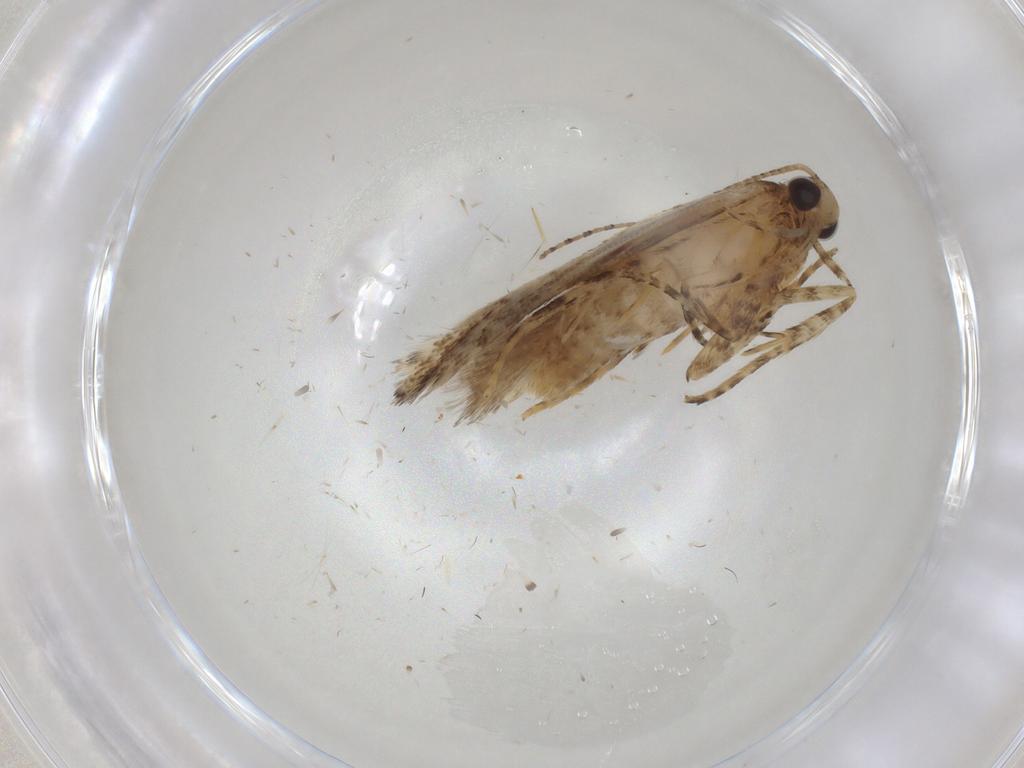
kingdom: Animalia
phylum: Arthropoda
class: Insecta
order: Lepidoptera
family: Gelechiidae
